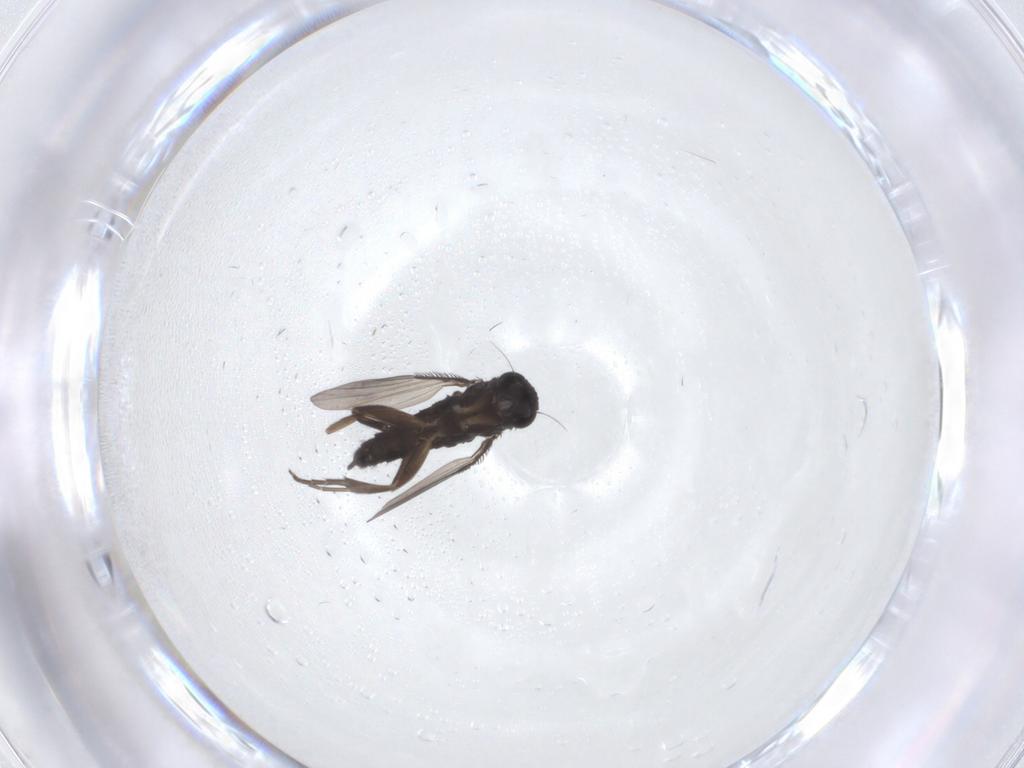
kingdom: Animalia
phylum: Arthropoda
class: Insecta
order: Diptera
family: Phoridae
